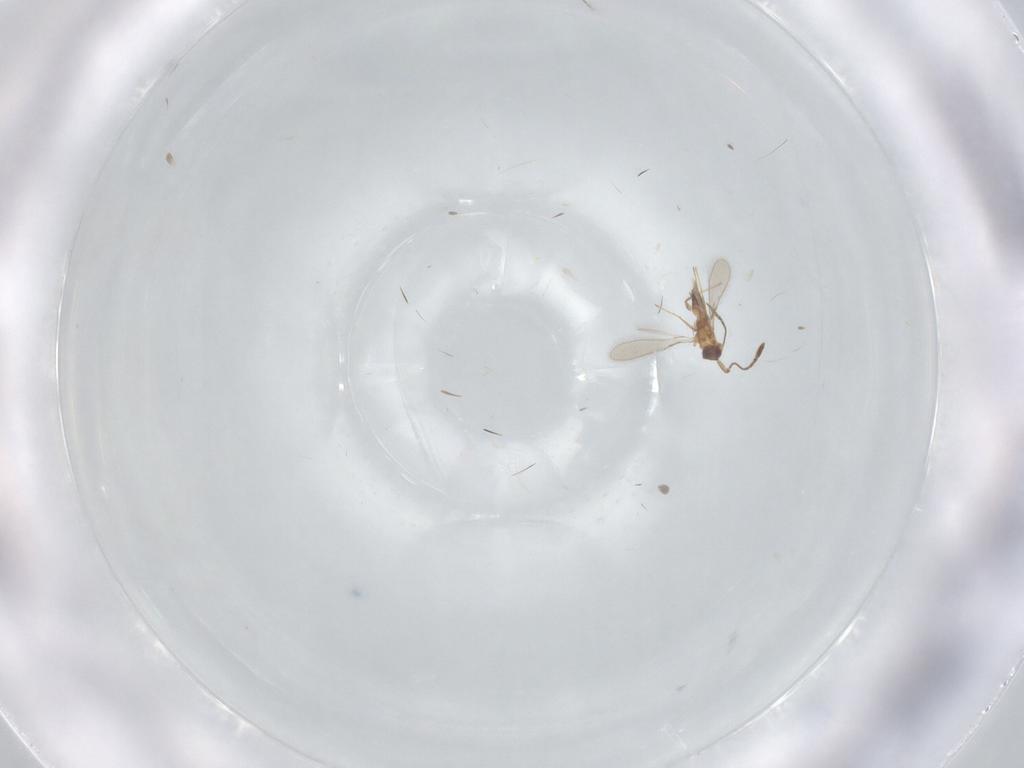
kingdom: Animalia
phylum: Arthropoda
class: Insecta
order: Hymenoptera
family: Mymaridae
